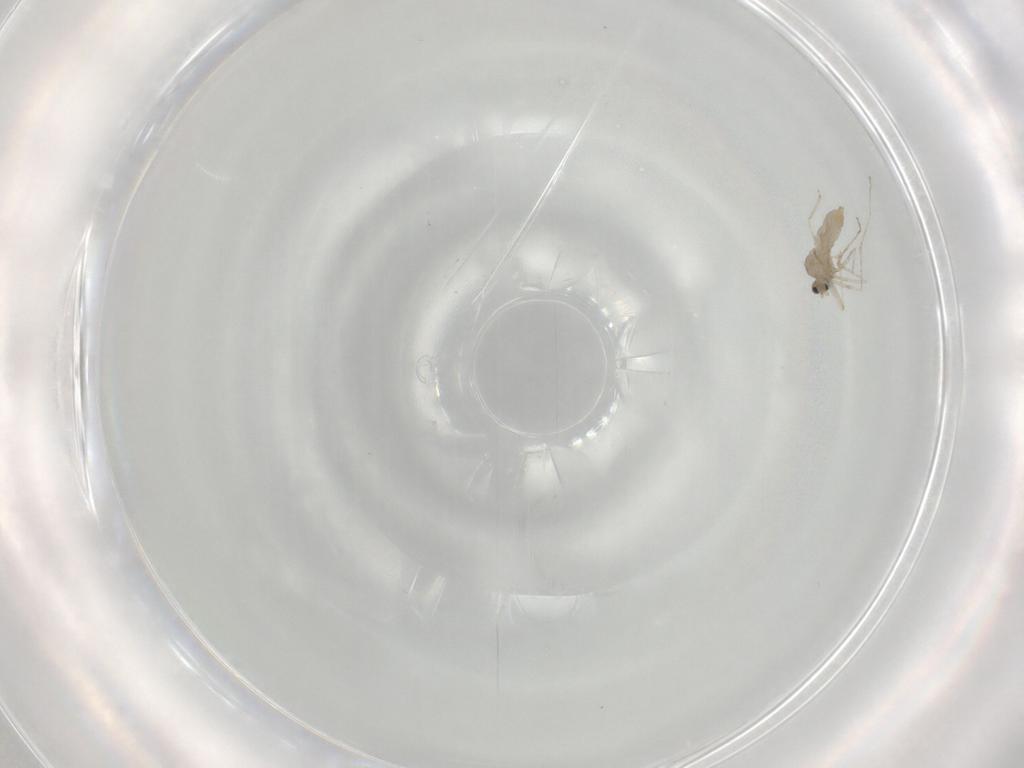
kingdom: Animalia
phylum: Arthropoda
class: Insecta
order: Diptera
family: Cecidomyiidae
